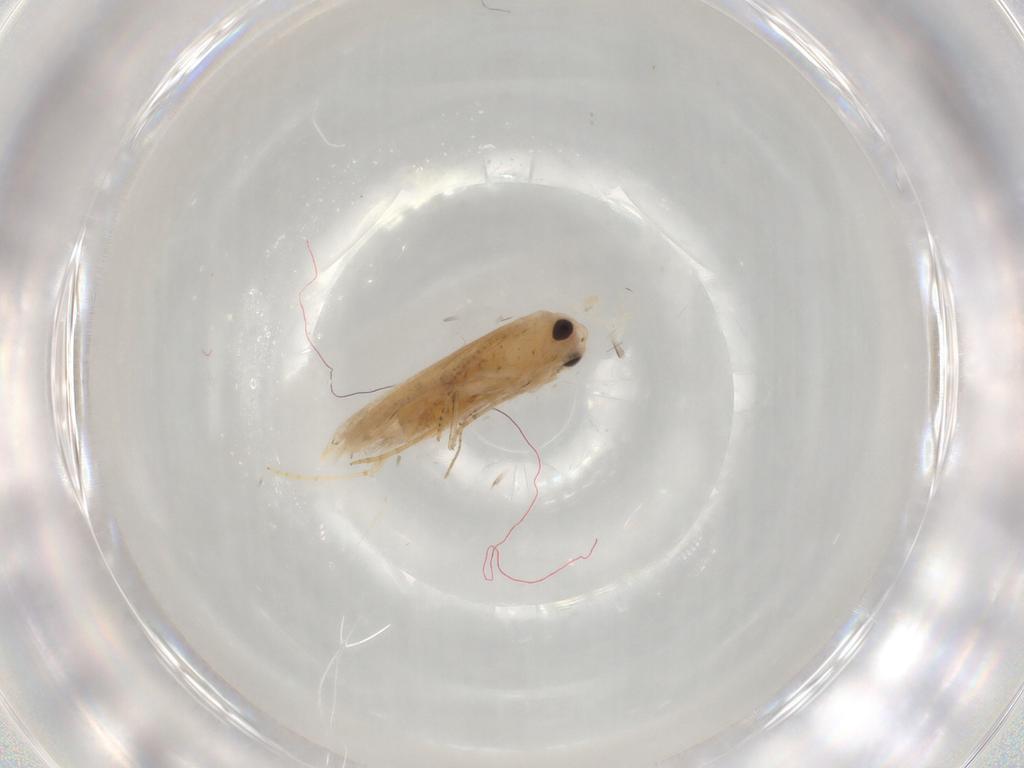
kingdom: Animalia
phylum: Arthropoda
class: Insecta
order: Lepidoptera
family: Bucculatricidae
